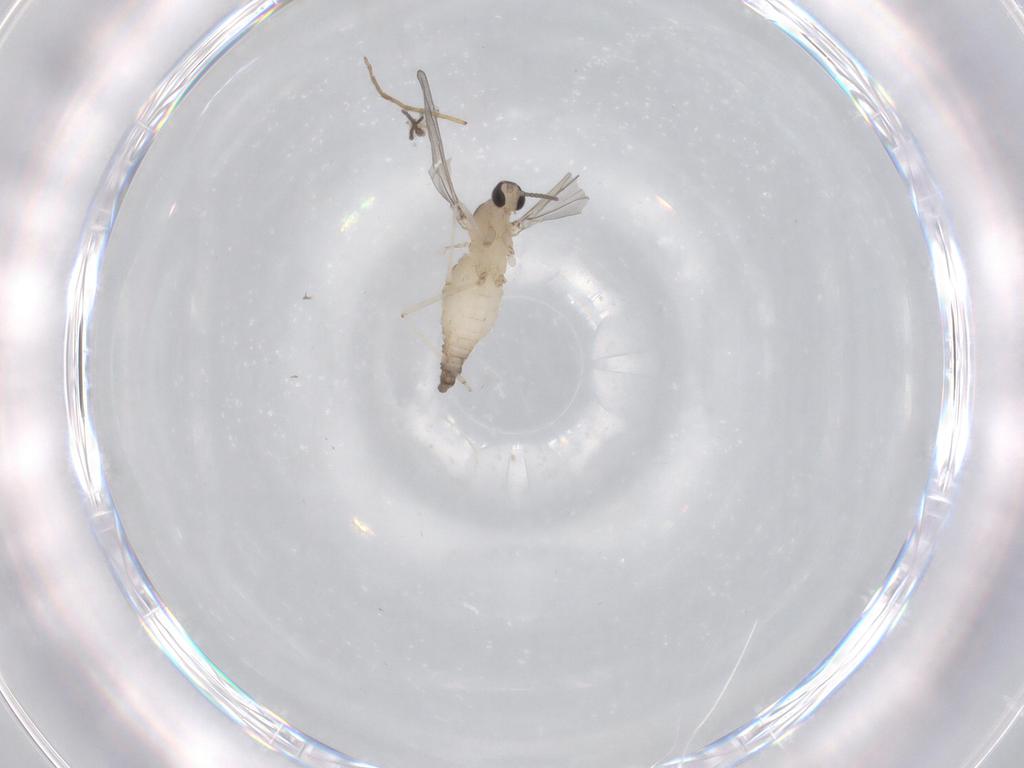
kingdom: Animalia
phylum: Arthropoda
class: Insecta
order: Diptera
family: Cecidomyiidae
